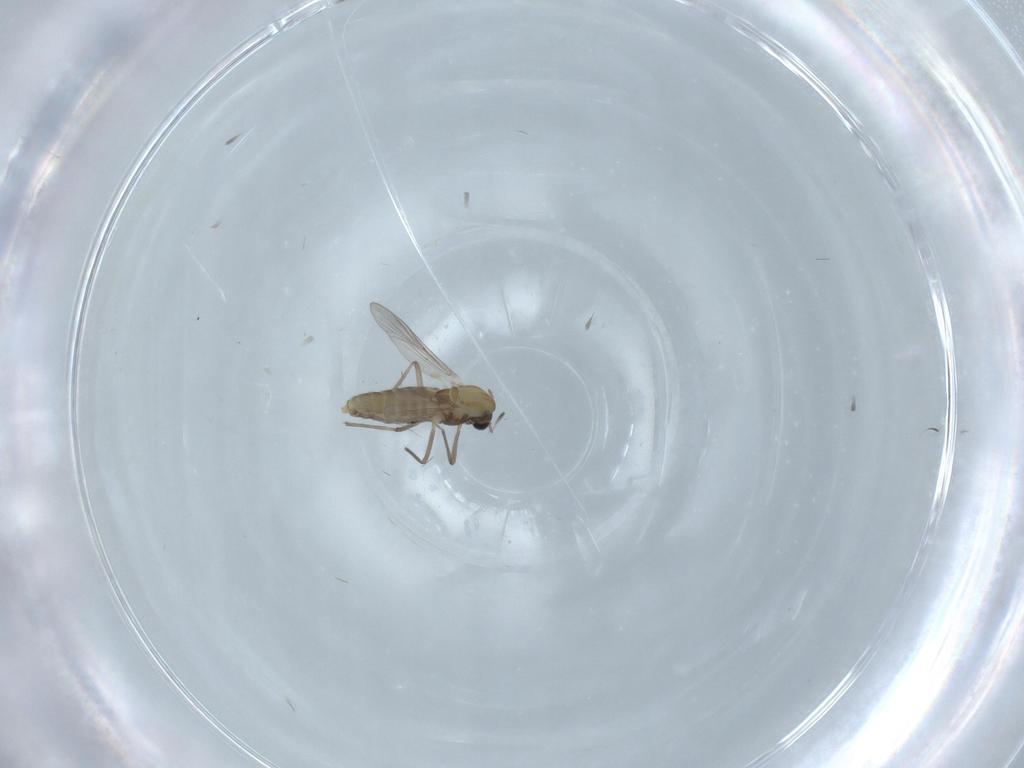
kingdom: Animalia
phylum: Arthropoda
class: Insecta
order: Diptera
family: Chironomidae
